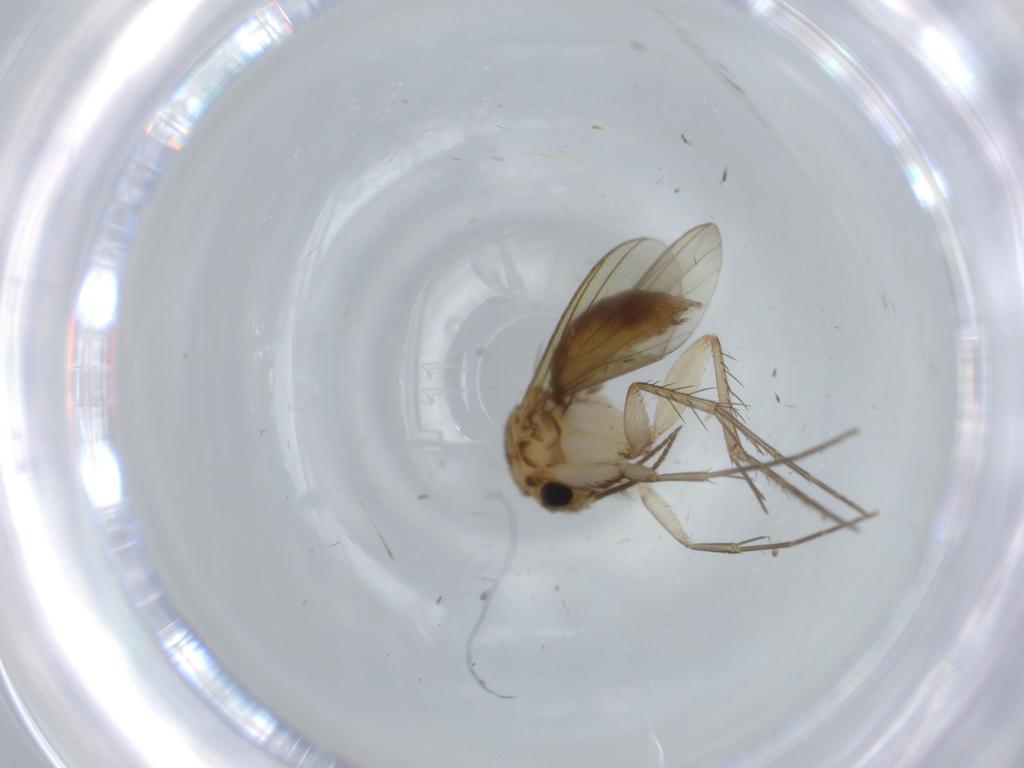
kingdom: Animalia
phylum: Arthropoda
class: Insecta
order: Diptera
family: Mycetophilidae
